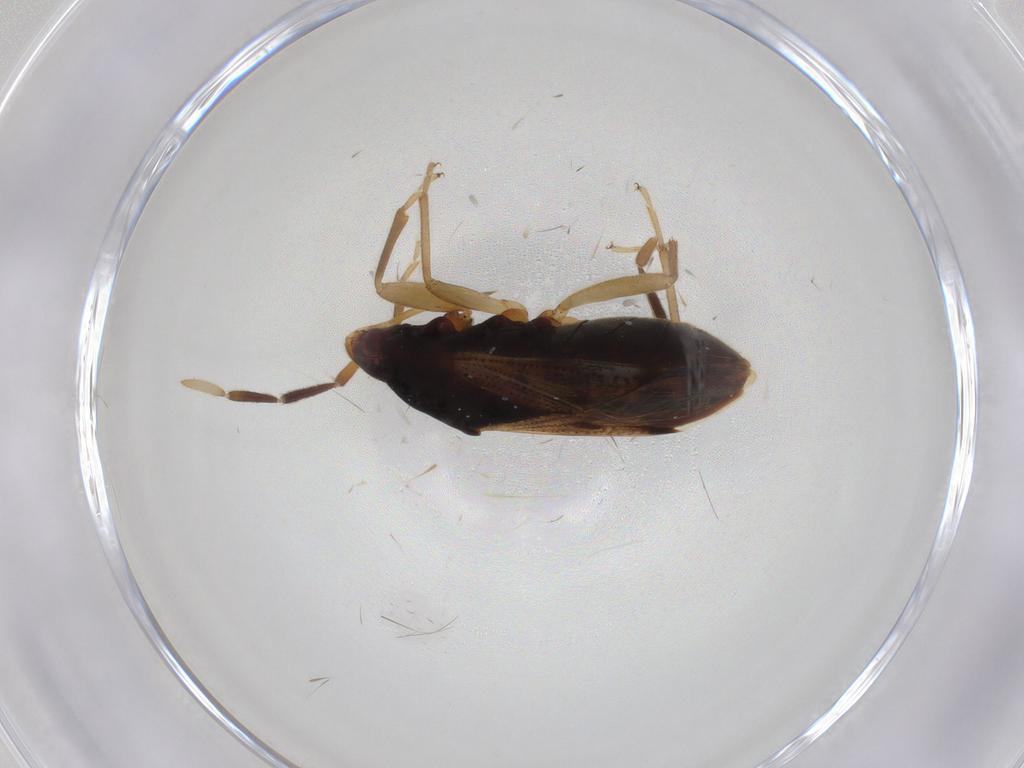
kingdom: Animalia
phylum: Arthropoda
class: Insecta
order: Hemiptera
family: Rhyparochromidae
